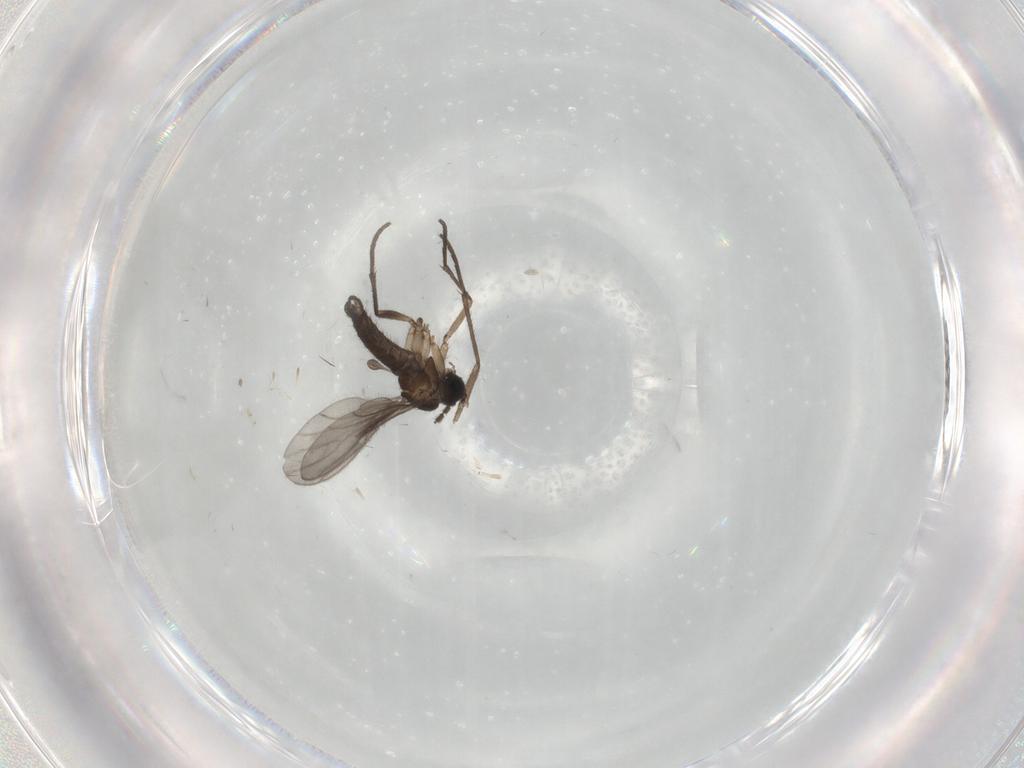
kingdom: Animalia
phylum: Arthropoda
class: Insecta
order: Diptera
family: Sciaridae
